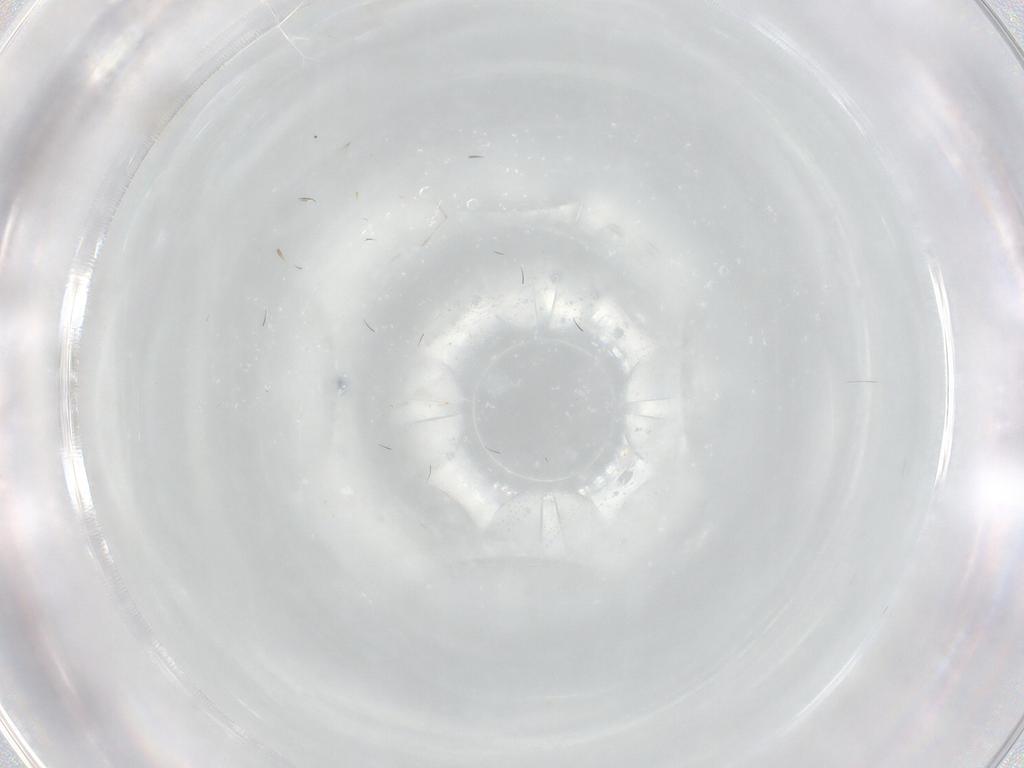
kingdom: Animalia
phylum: Arthropoda
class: Insecta
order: Diptera
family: Cecidomyiidae
